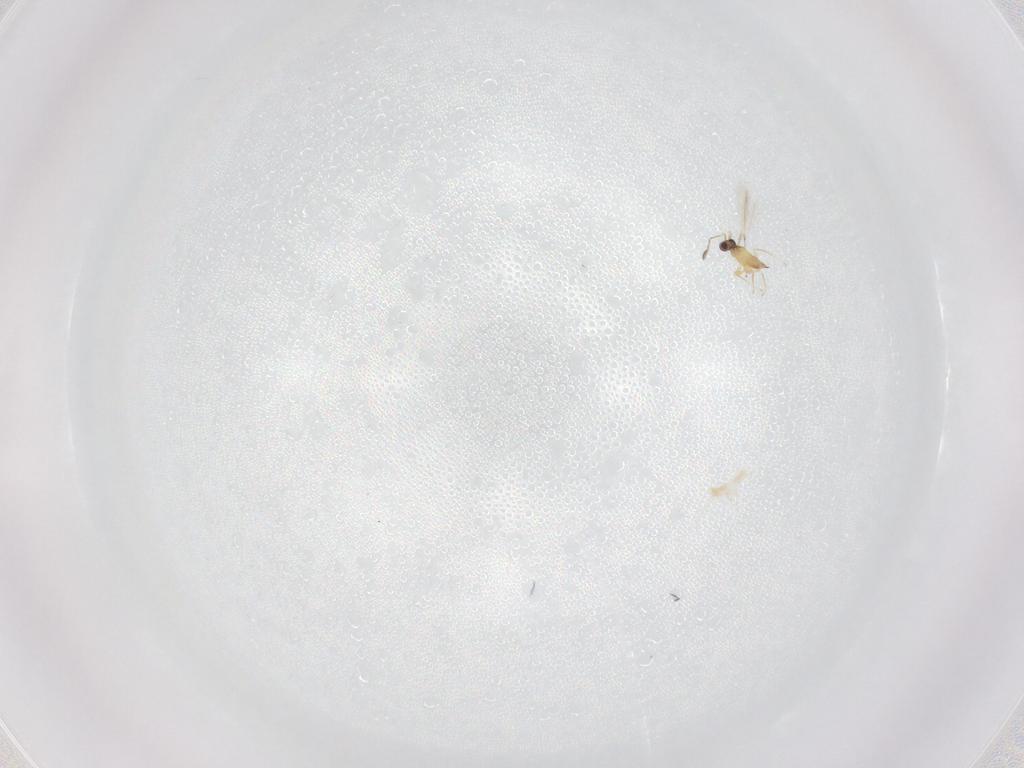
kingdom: Animalia
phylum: Arthropoda
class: Insecta
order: Hymenoptera
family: Mymaridae
